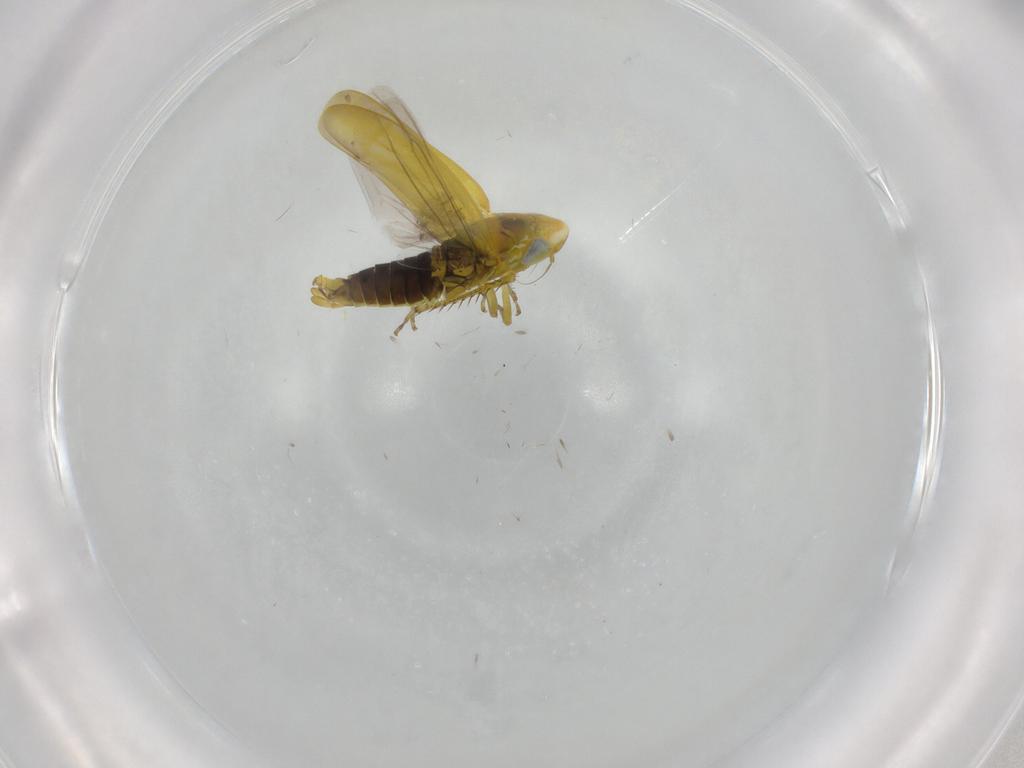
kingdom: Animalia
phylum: Arthropoda
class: Insecta
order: Hemiptera
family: Cicadellidae
